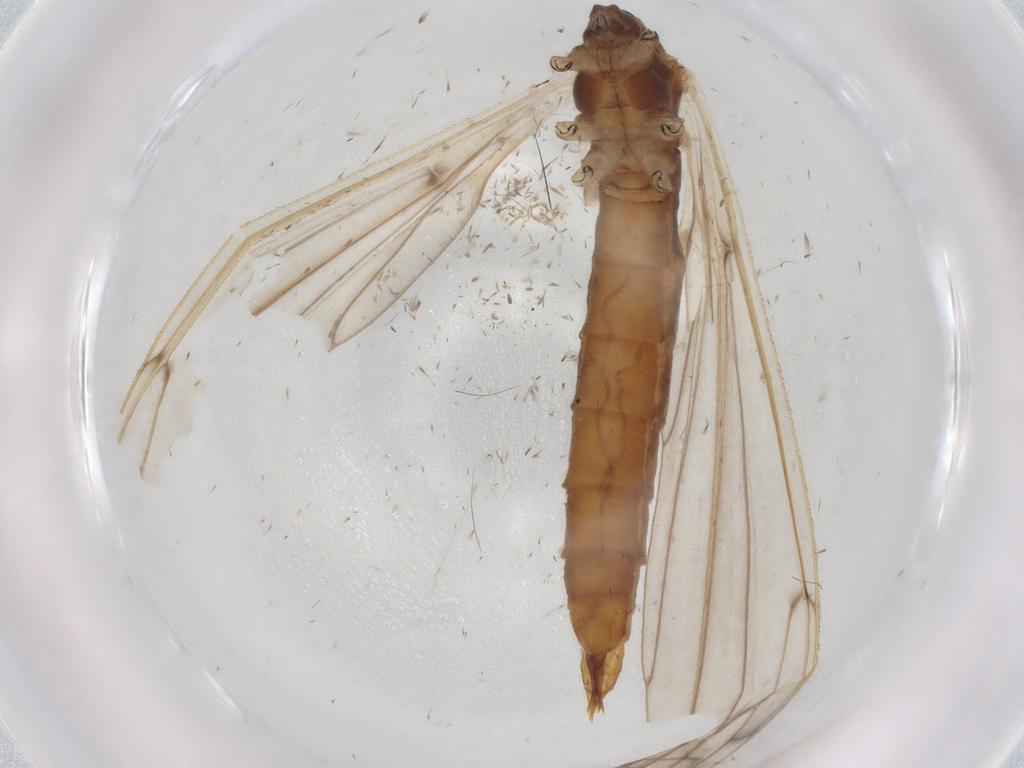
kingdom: Animalia
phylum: Arthropoda
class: Insecta
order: Diptera
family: Limoniidae
